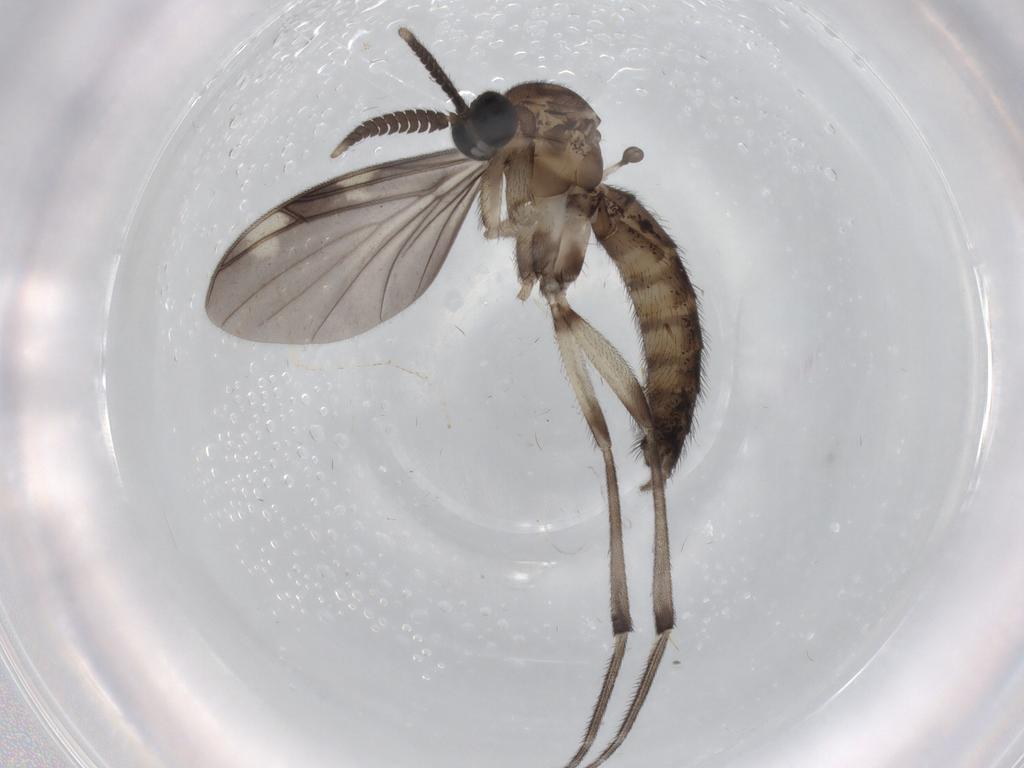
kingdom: Animalia
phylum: Arthropoda
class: Insecta
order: Diptera
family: Keroplatidae
